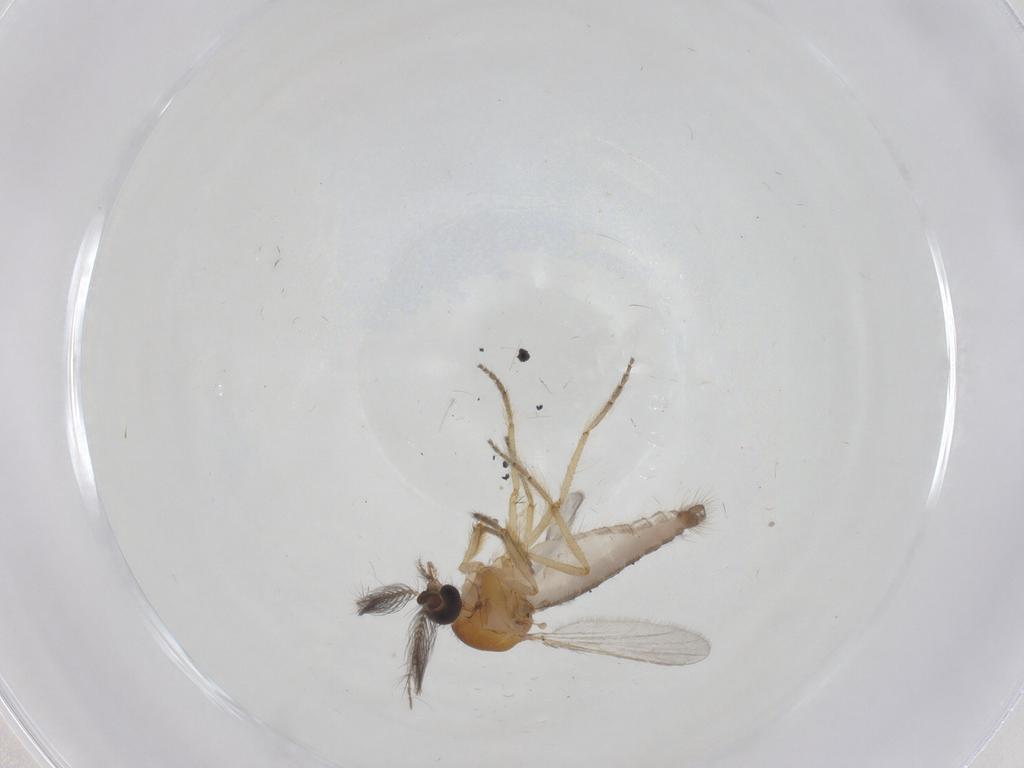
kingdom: Animalia
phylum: Arthropoda
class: Insecta
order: Diptera
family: Ceratopogonidae
